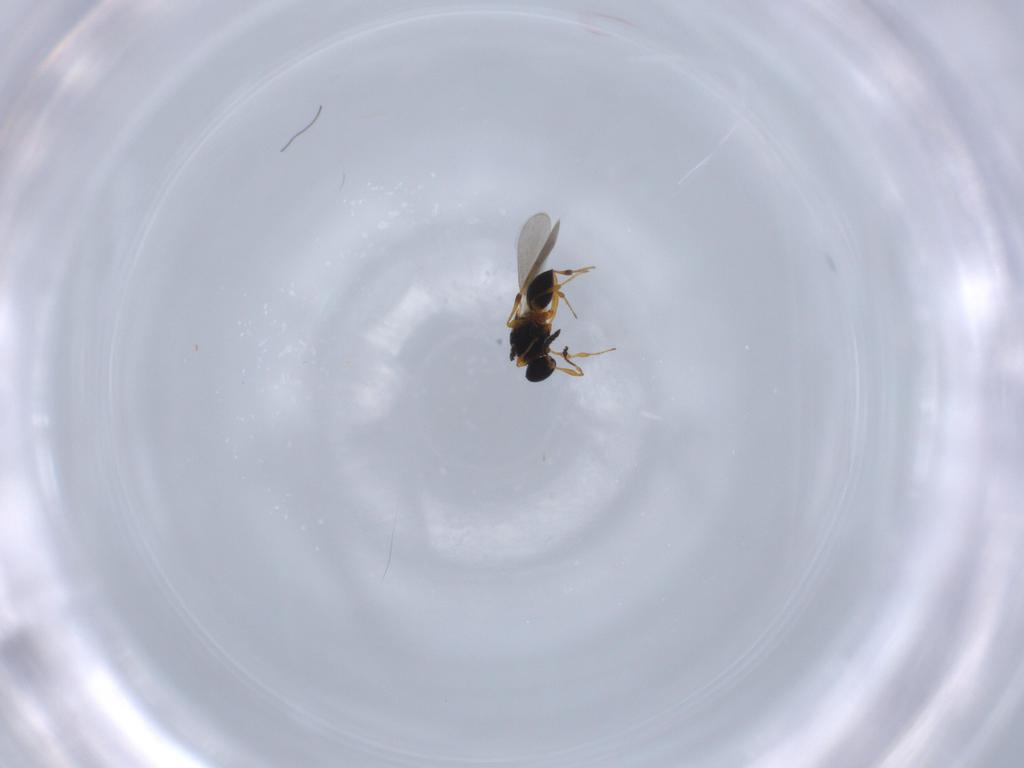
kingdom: Animalia
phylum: Arthropoda
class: Insecta
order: Hymenoptera
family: Platygastridae
